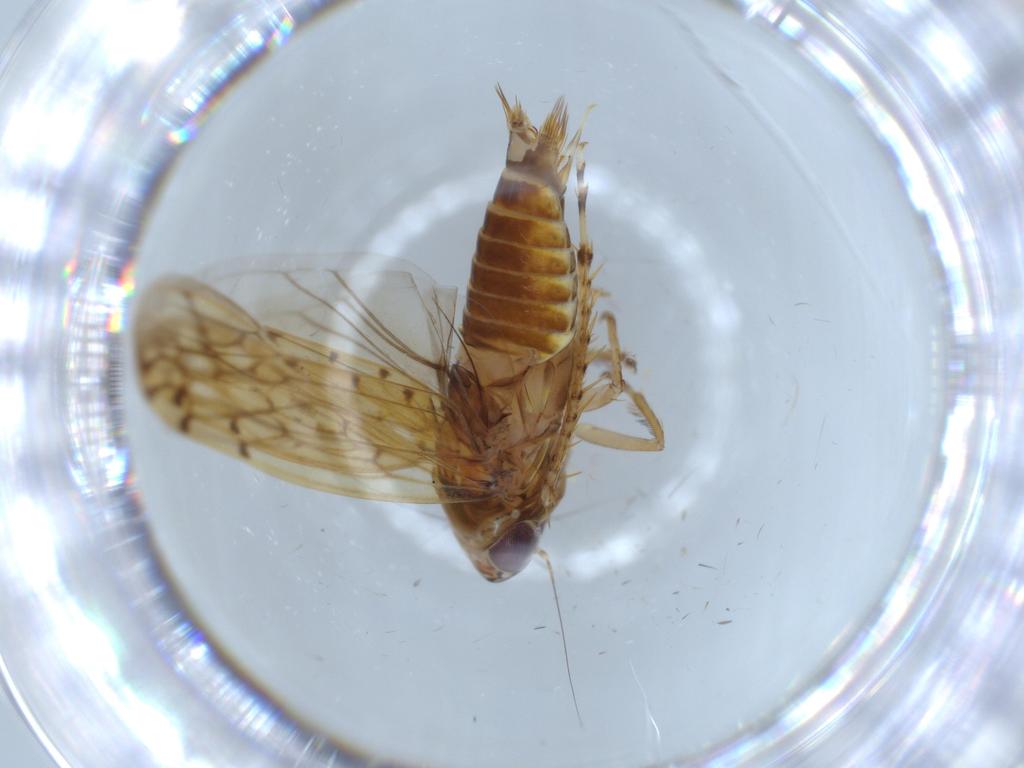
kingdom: Animalia
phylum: Arthropoda
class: Insecta
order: Hemiptera
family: Cicadellidae
